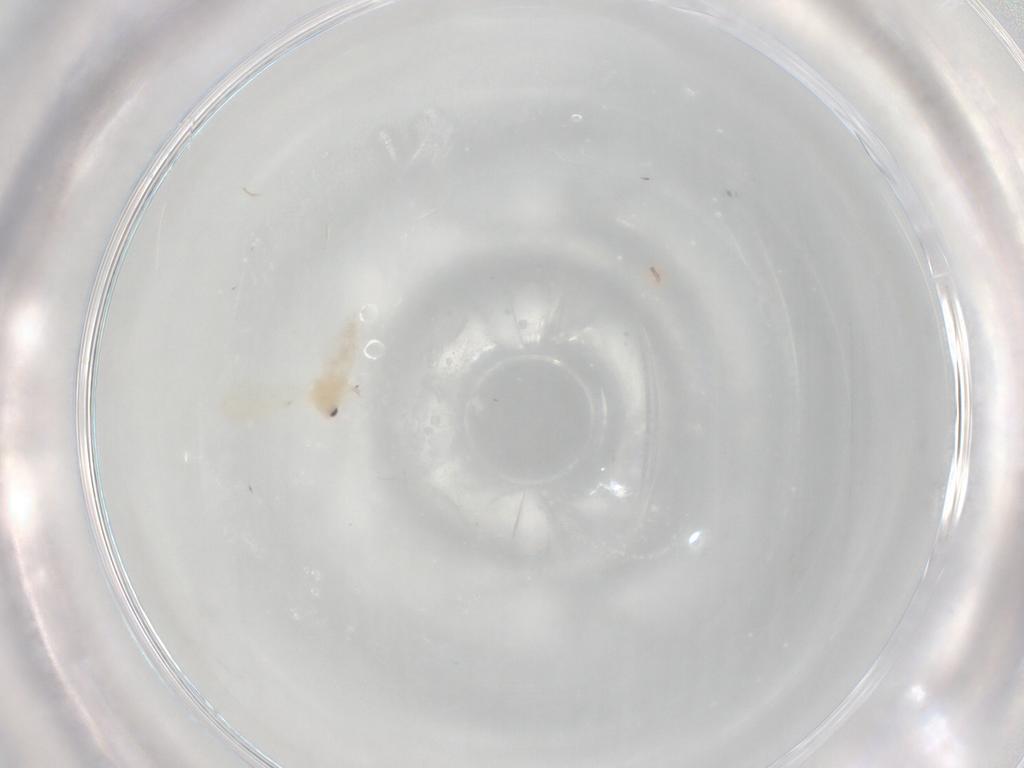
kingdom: Animalia
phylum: Arthropoda
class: Insecta
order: Hemiptera
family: Aleyrodidae
